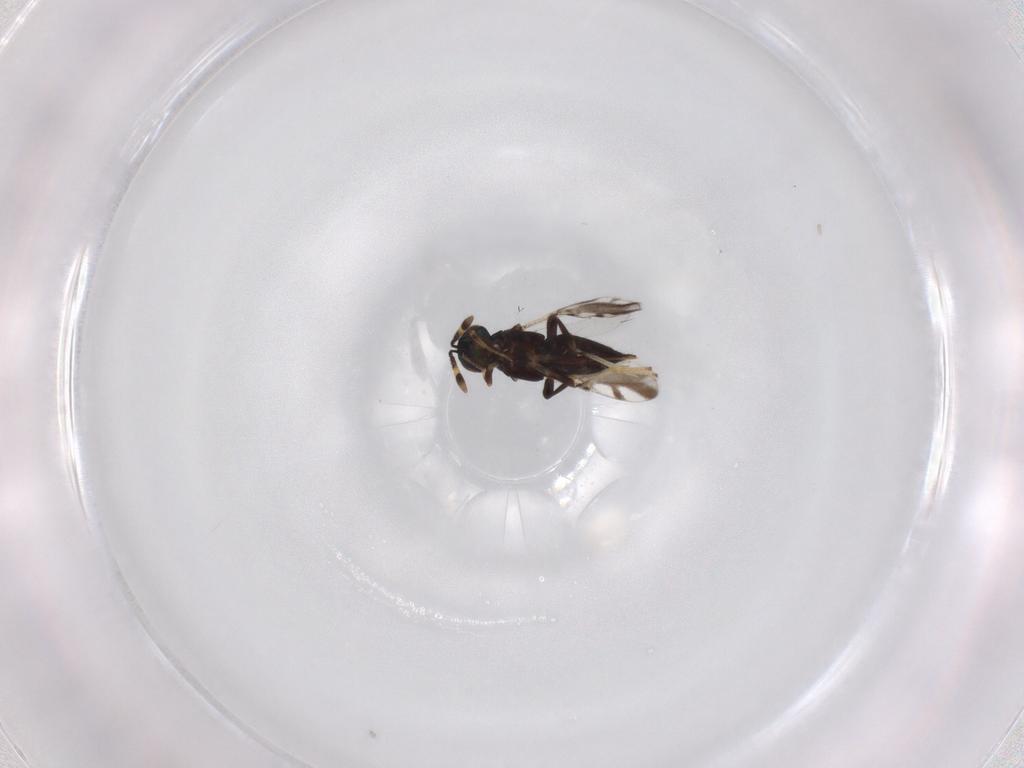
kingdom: Animalia
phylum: Arthropoda
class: Insecta
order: Hymenoptera
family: Encyrtidae
